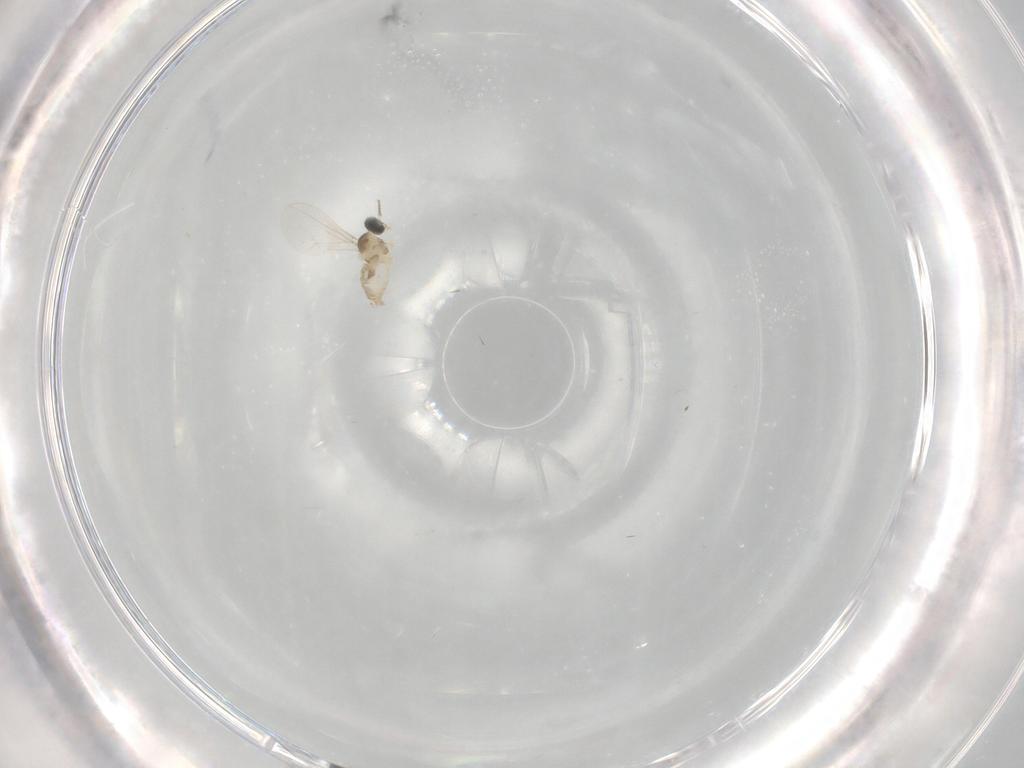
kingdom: Animalia
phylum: Arthropoda
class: Insecta
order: Diptera
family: Cecidomyiidae
